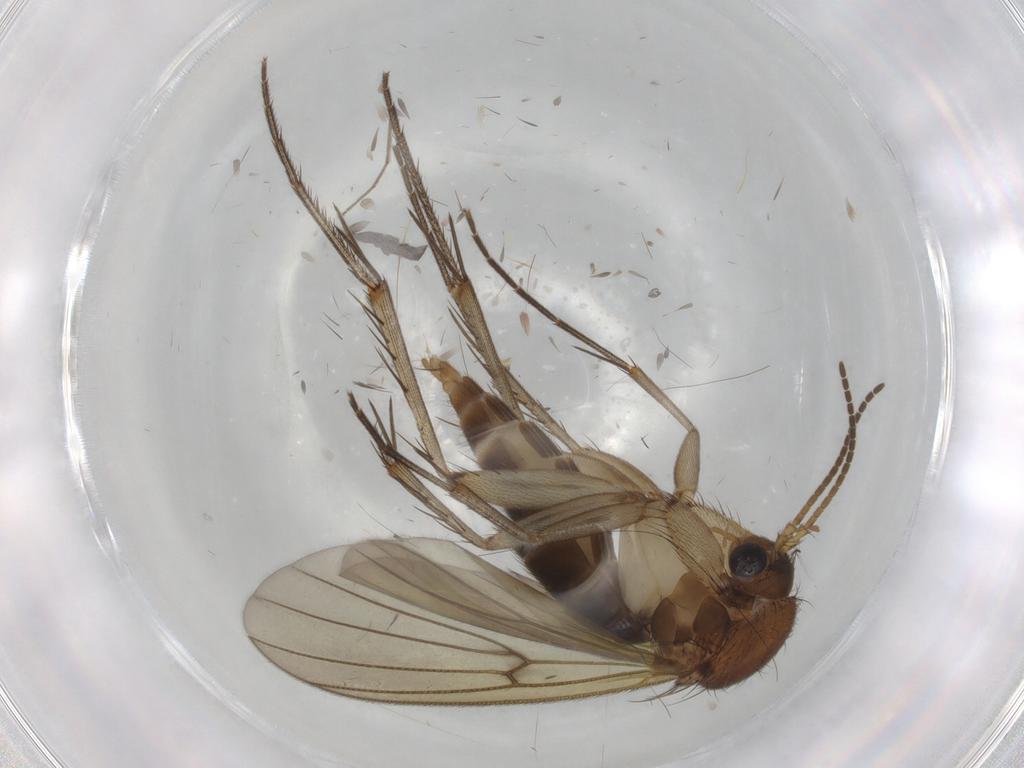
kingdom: Animalia
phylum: Arthropoda
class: Insecta
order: Diptera
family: Mycetophilidae
